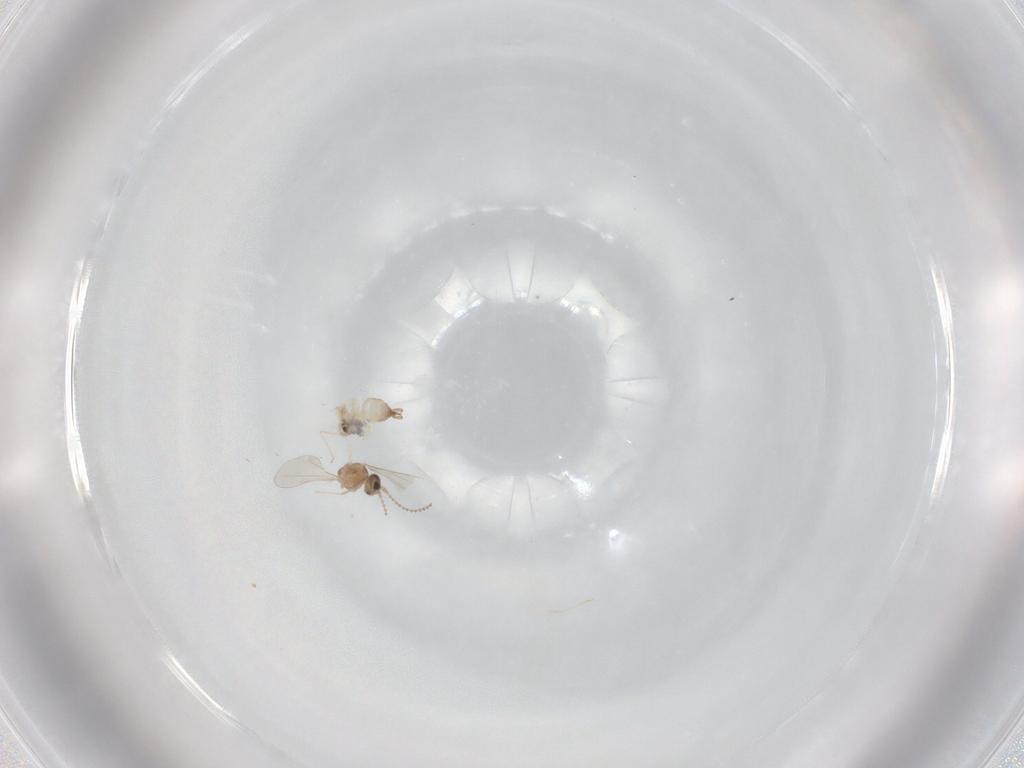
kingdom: Animalia
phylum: Arthropoda
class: Insecta
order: Diptera
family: Cecidomyiidae
